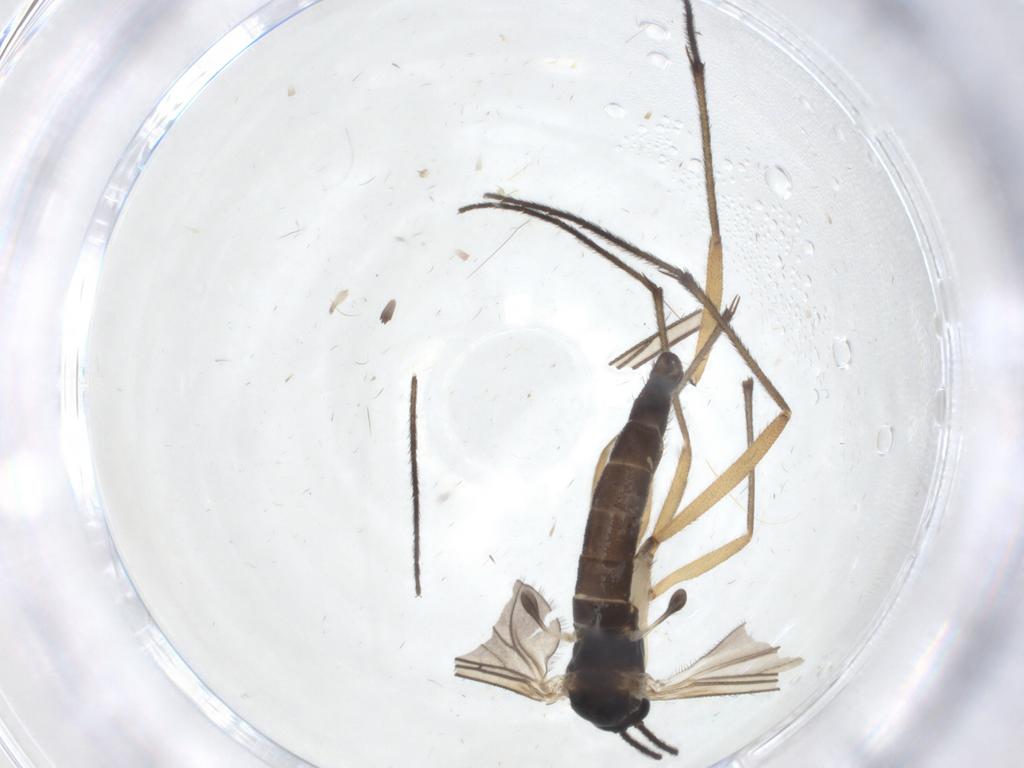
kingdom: Animalia
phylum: Arthropoda
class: Insecta
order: Diptera
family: Sciaridae
